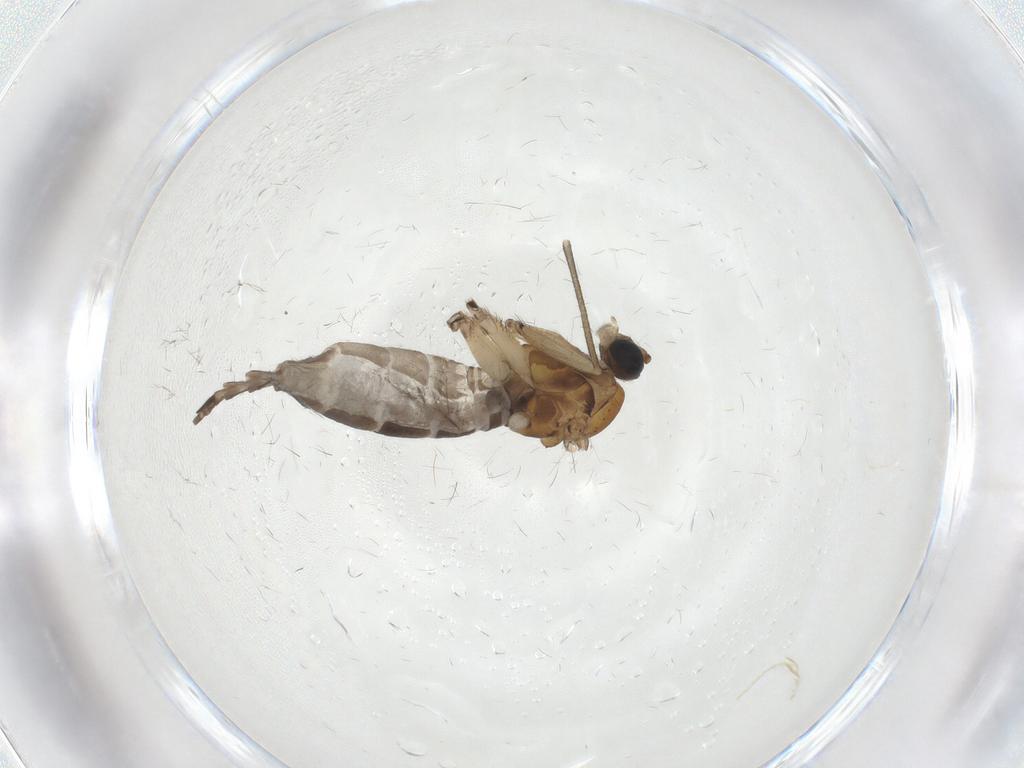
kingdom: Animalia
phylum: Arthropoda
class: Insecta
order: Diptera
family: Sciaridae
